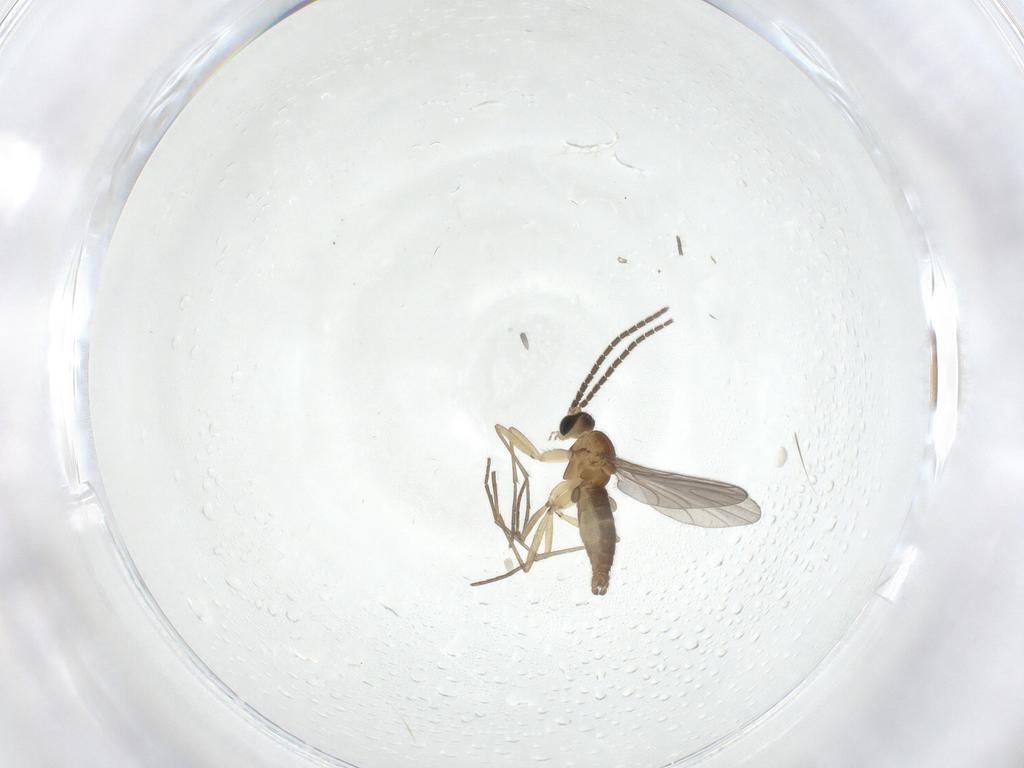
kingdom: Animalia
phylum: Arthropoda
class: Insecta
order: Diptera
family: Sciaridae
